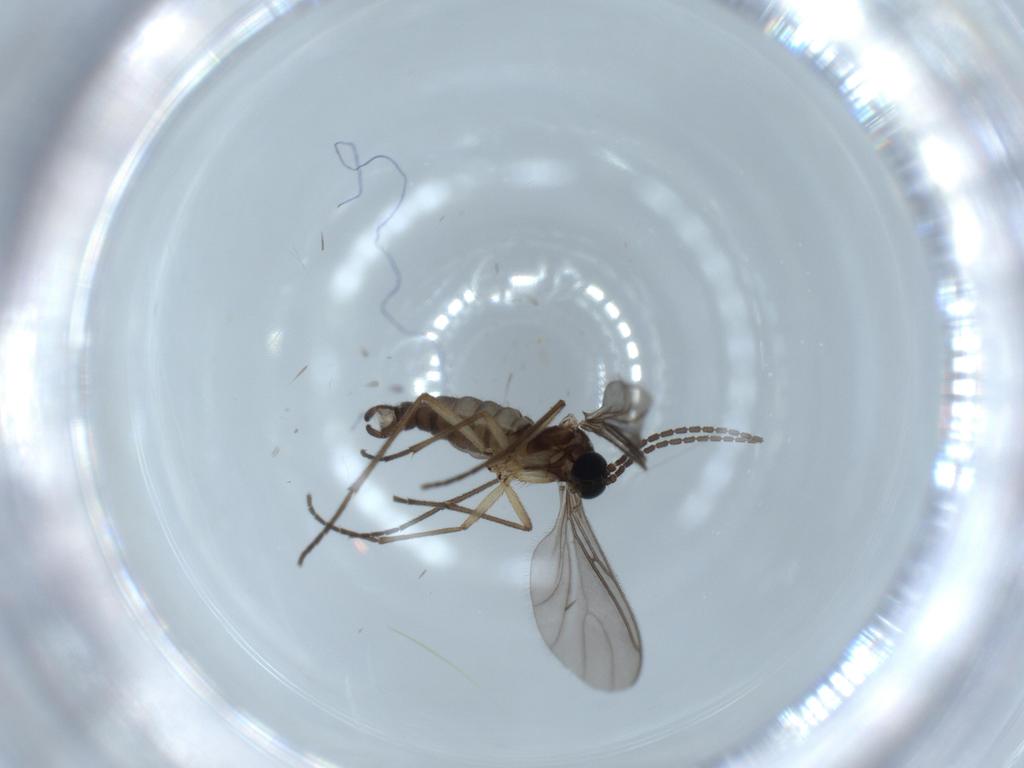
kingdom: Animalia
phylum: Arthropoda
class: Insecta
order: Diptera
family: Sciaridae
